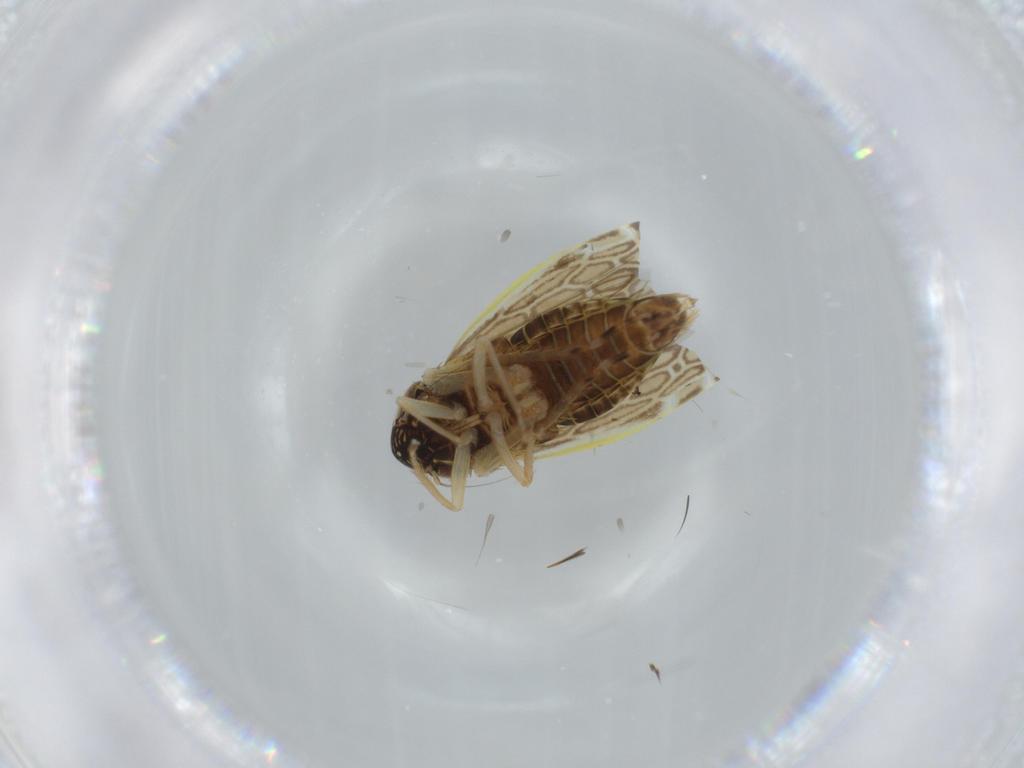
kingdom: Animalia
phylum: Arthropoda
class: Insecta
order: Hemiptera
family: Cicadellidae
